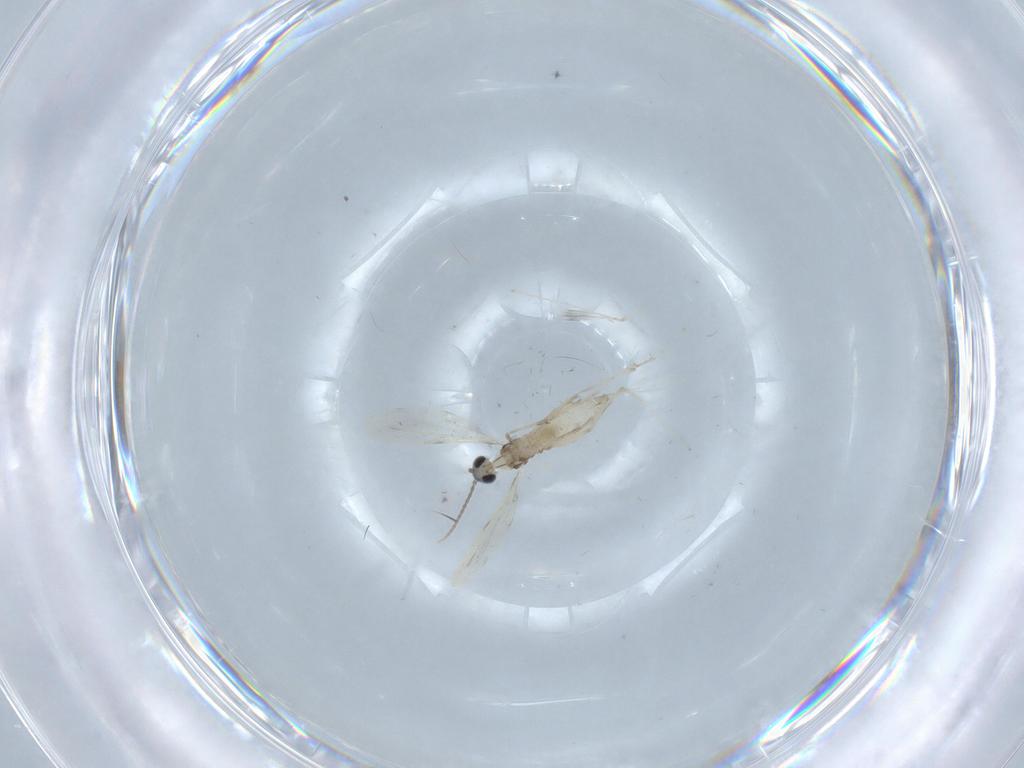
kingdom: Animalia
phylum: Arthropoda
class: Insecta
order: Diptera
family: Cecidomyiidae
